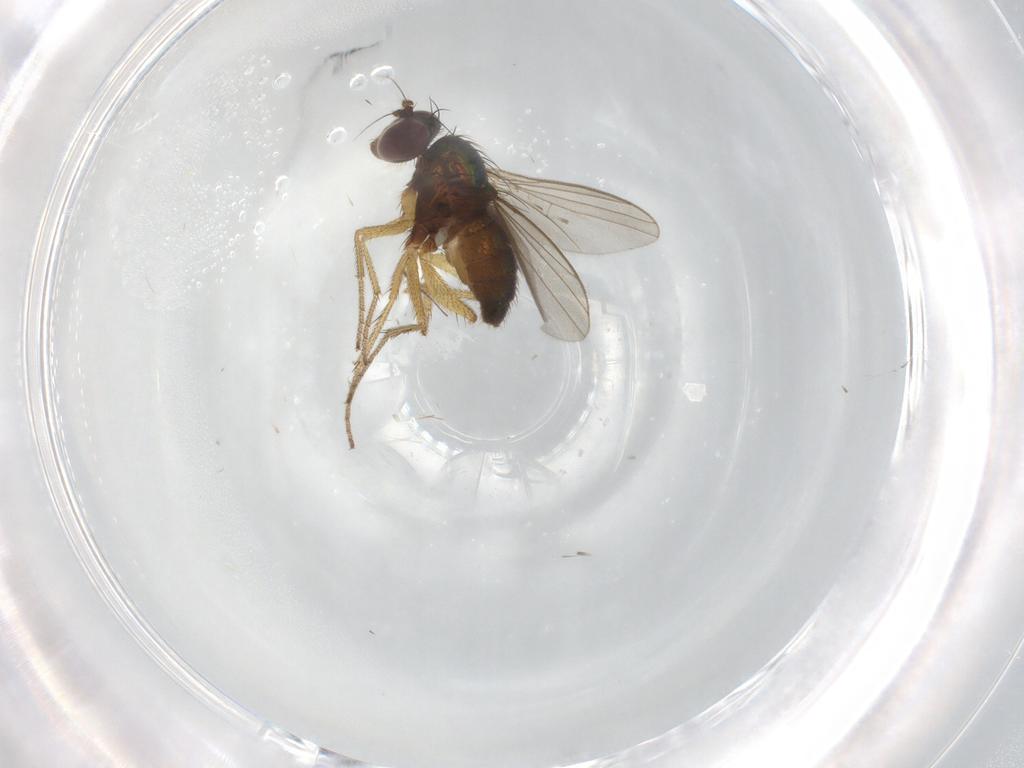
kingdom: Animalia
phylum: Arthropoda
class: Insecta
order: Diptera
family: Dolichopodidae
